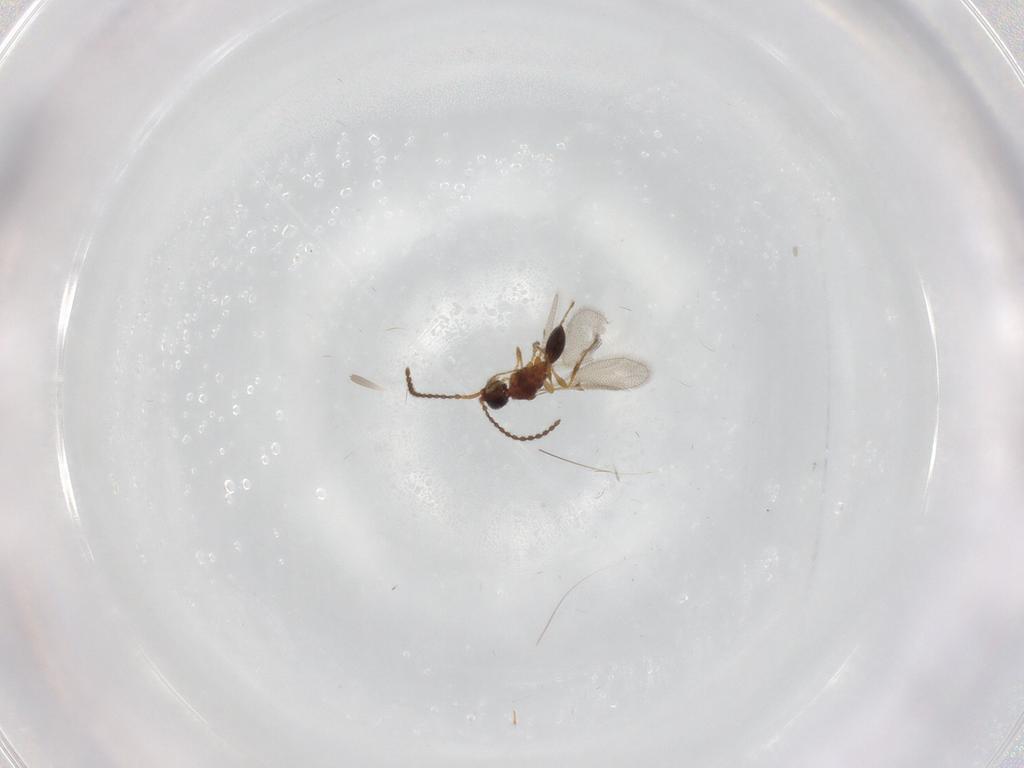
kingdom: Animalia
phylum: Arthropoda
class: Insecta
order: Hymenoptera
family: Diapriidae
